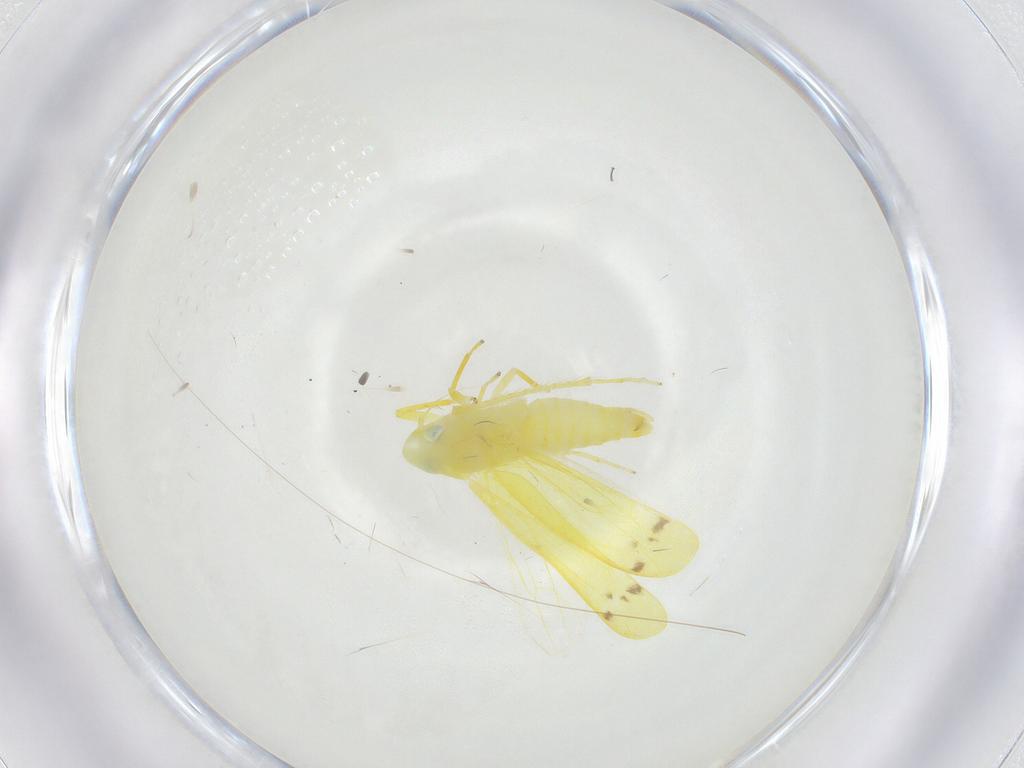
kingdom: Animalia
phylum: Arthropoda
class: Insecta
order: Hemiptera
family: Cicadellidae
